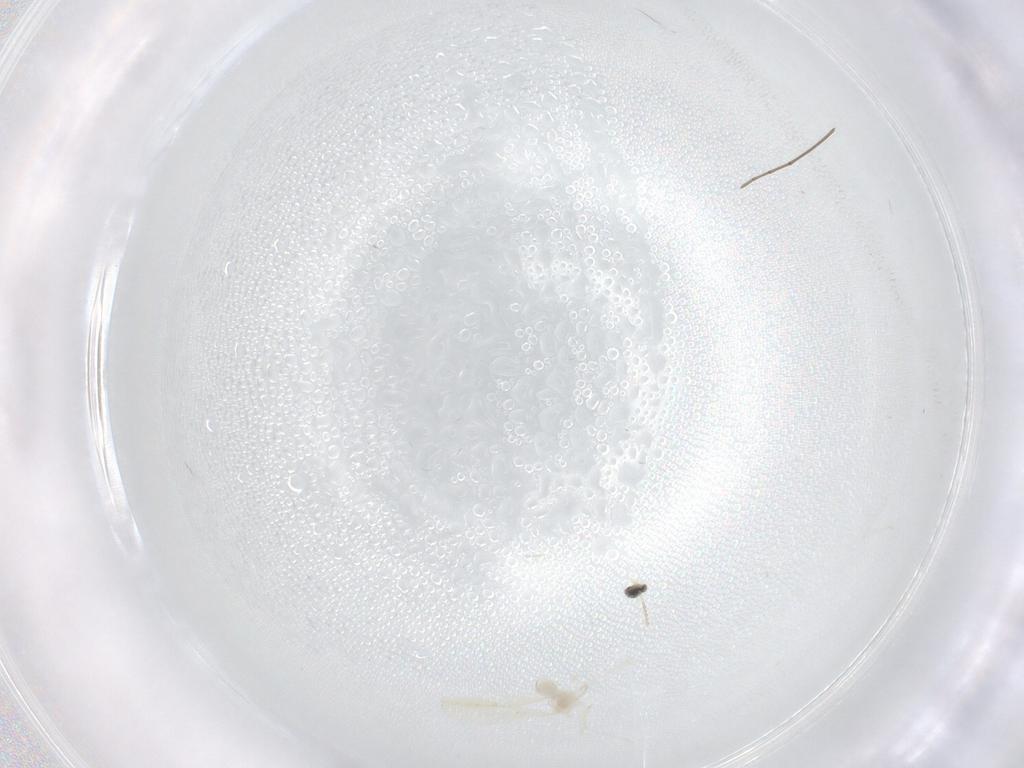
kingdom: Animalia
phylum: Arthropoda
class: Insecta
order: Diptera
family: Cecidomyiidae
